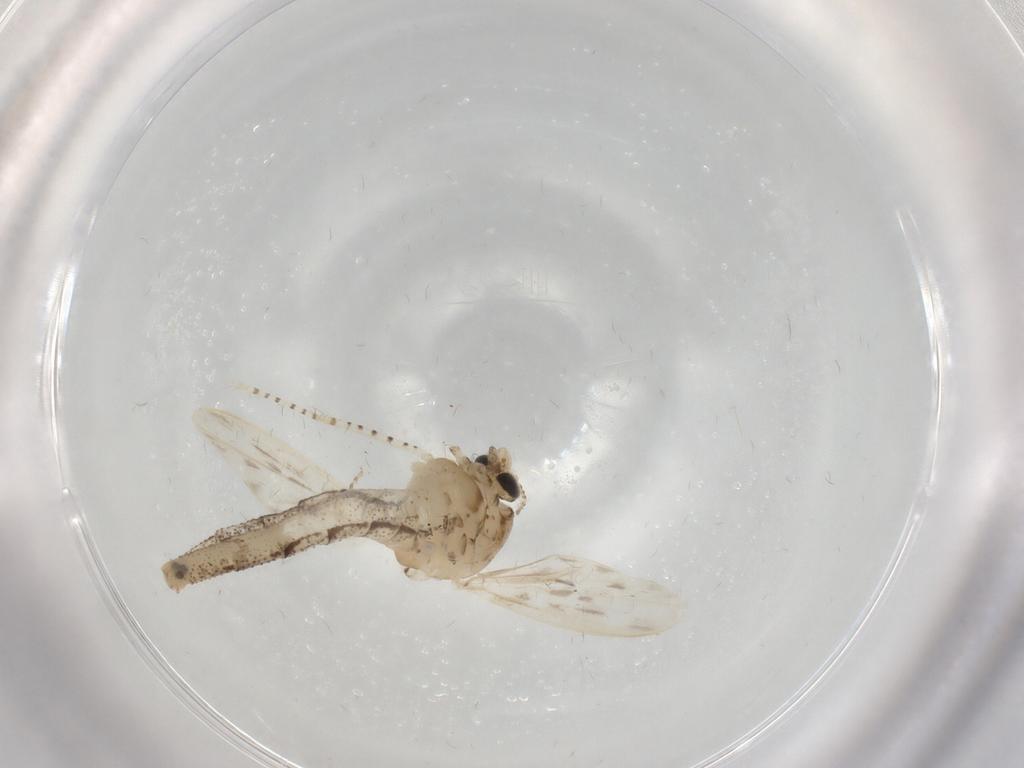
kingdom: Animalia
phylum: Arthropoda
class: Insecta
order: Diptera
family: Chaoboridae
